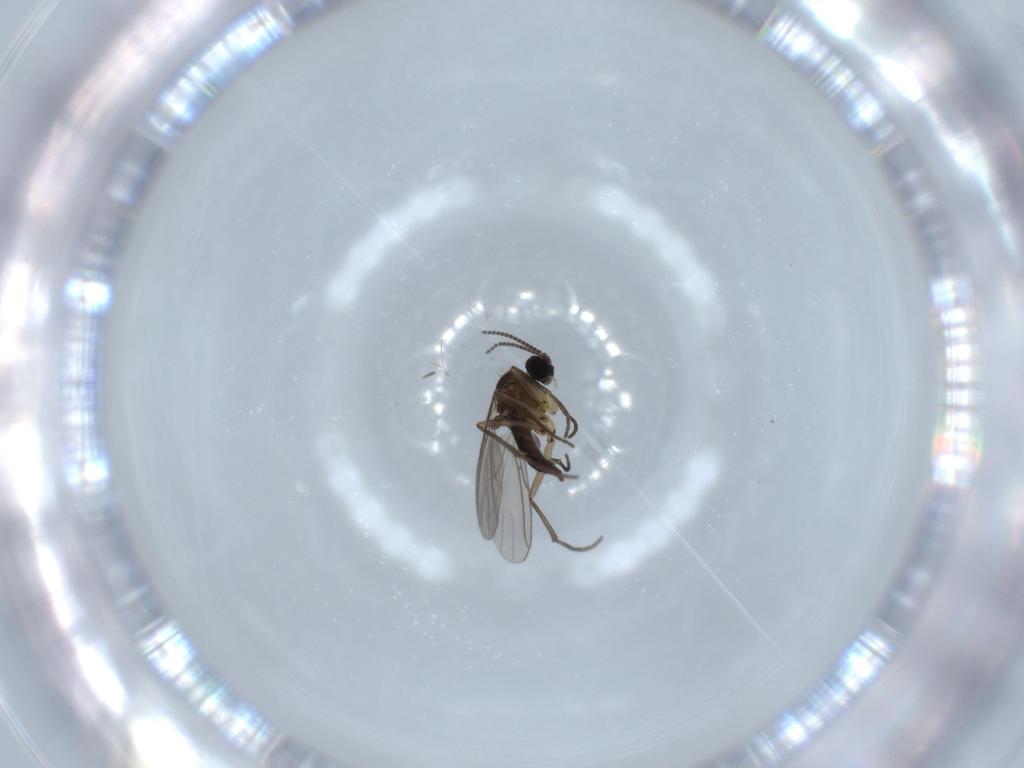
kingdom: Animalia
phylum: Arthropoda
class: Insecta
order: Diptera
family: Sciaridae
